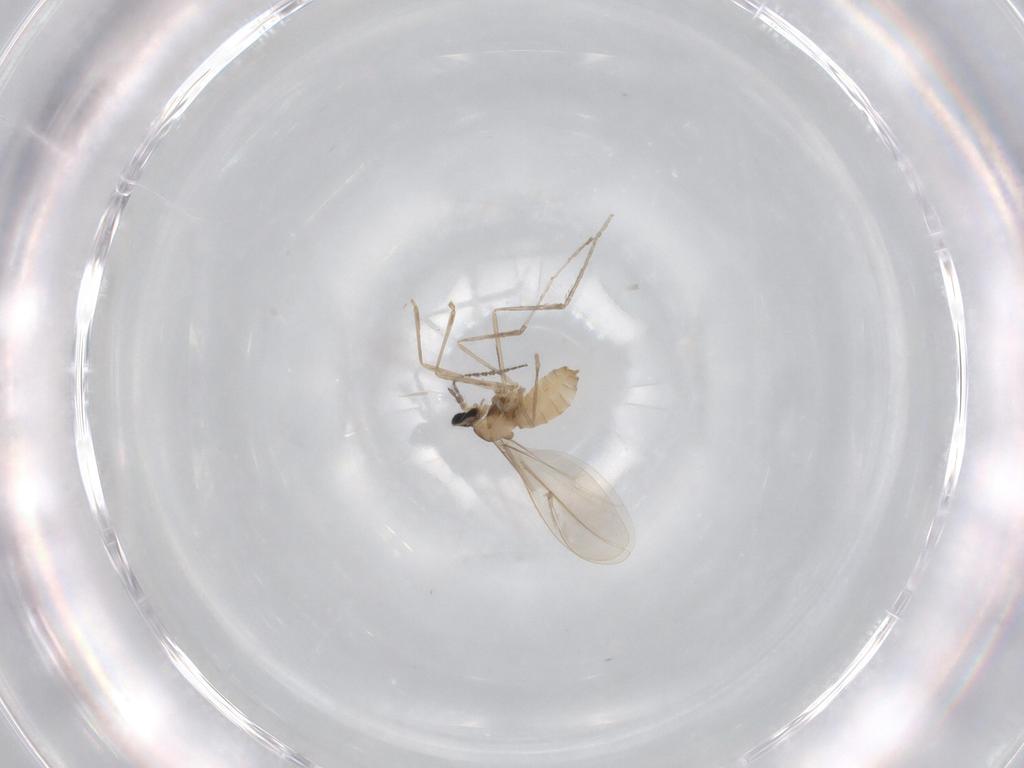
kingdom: Animalia
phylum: Arthropoda
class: Insecta
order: Diptera
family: Cecidomyiidae
